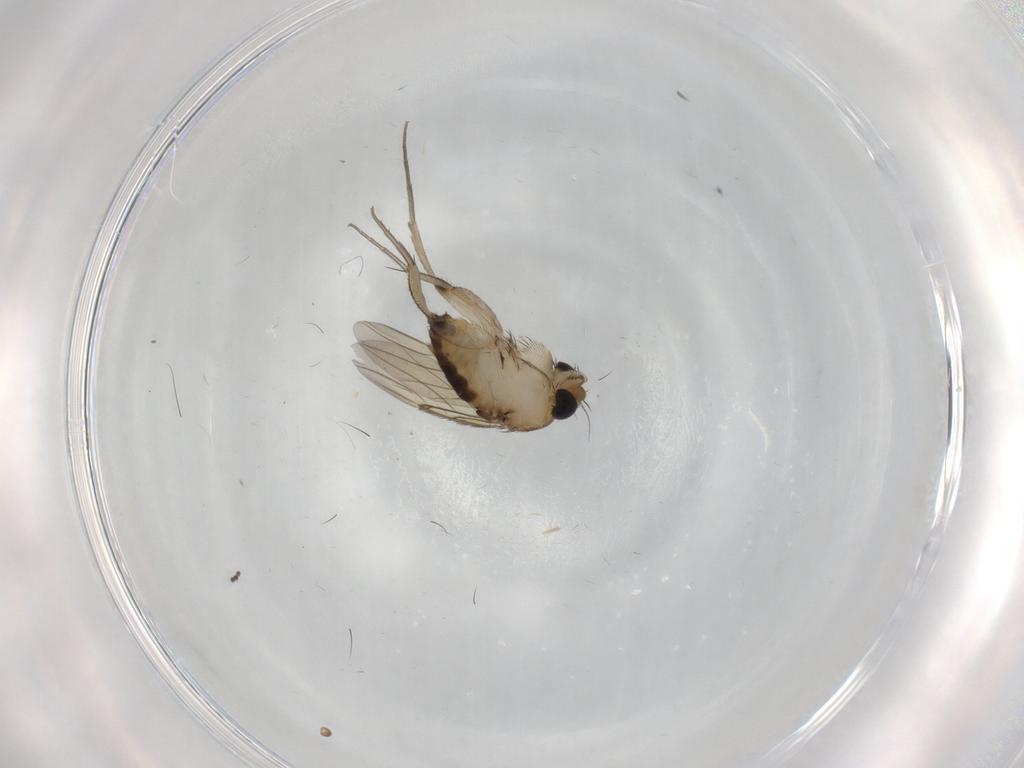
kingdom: Animalia
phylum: Arthropoda
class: Insecta
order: Diptera
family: Phoridae
